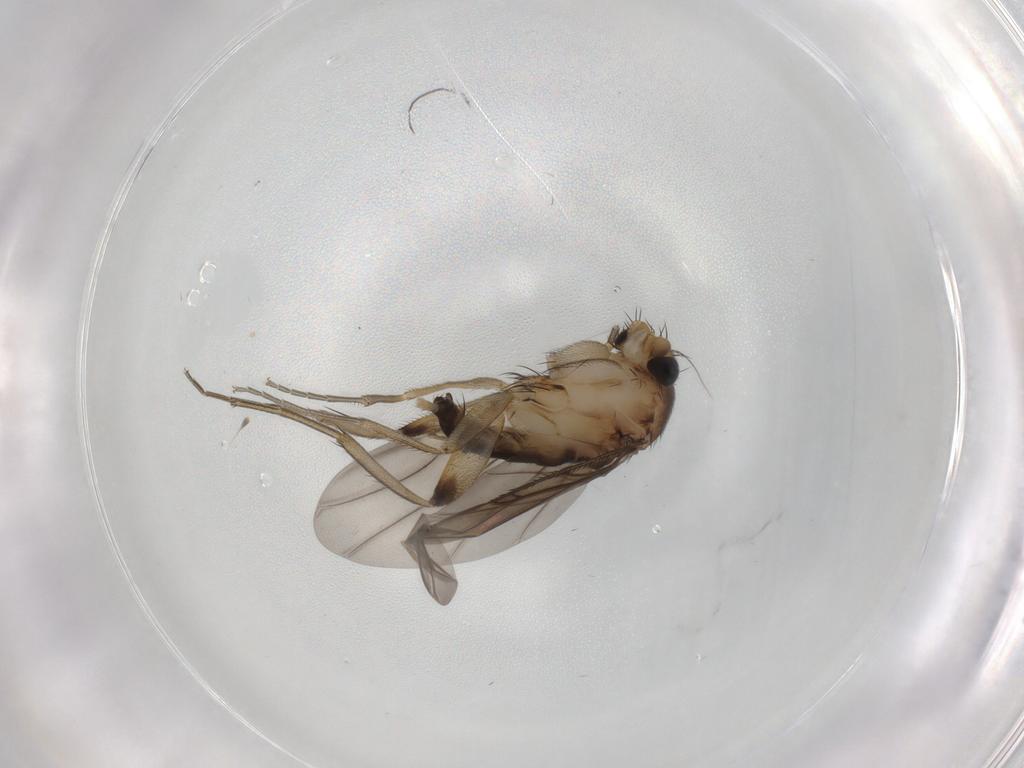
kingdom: Animalia
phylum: Arthropoda
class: Insecta
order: Diptera
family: Phoridae
